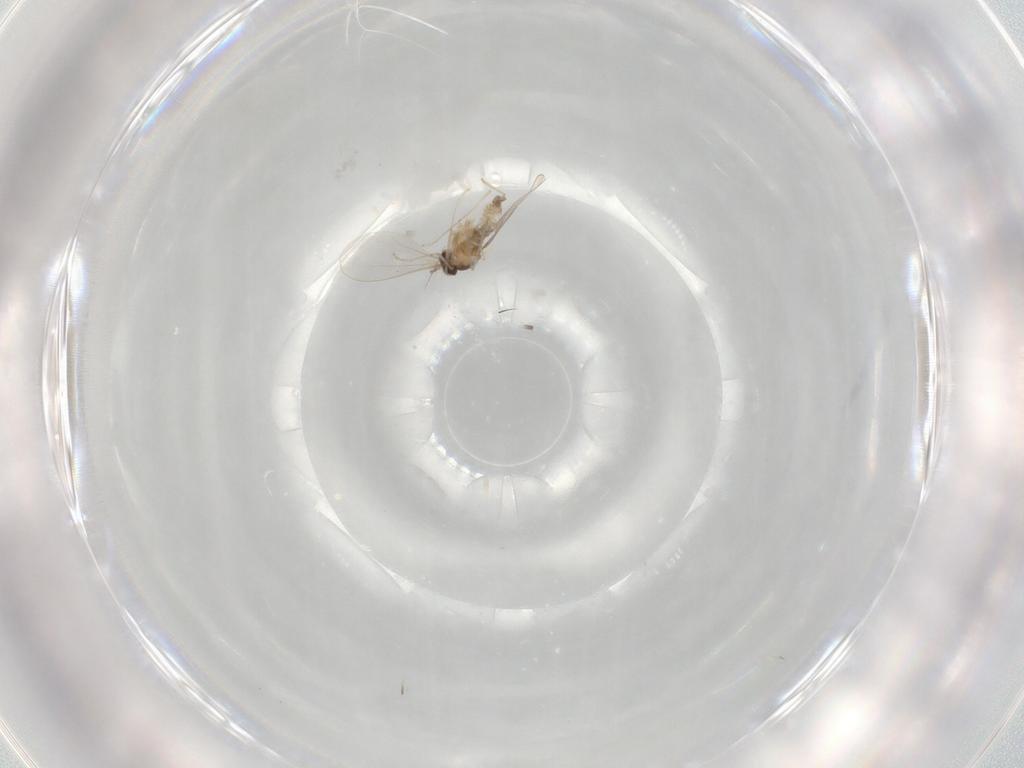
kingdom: Animalia
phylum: Arthropoda
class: Insecta
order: Diptera
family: Cecidomyiidae
